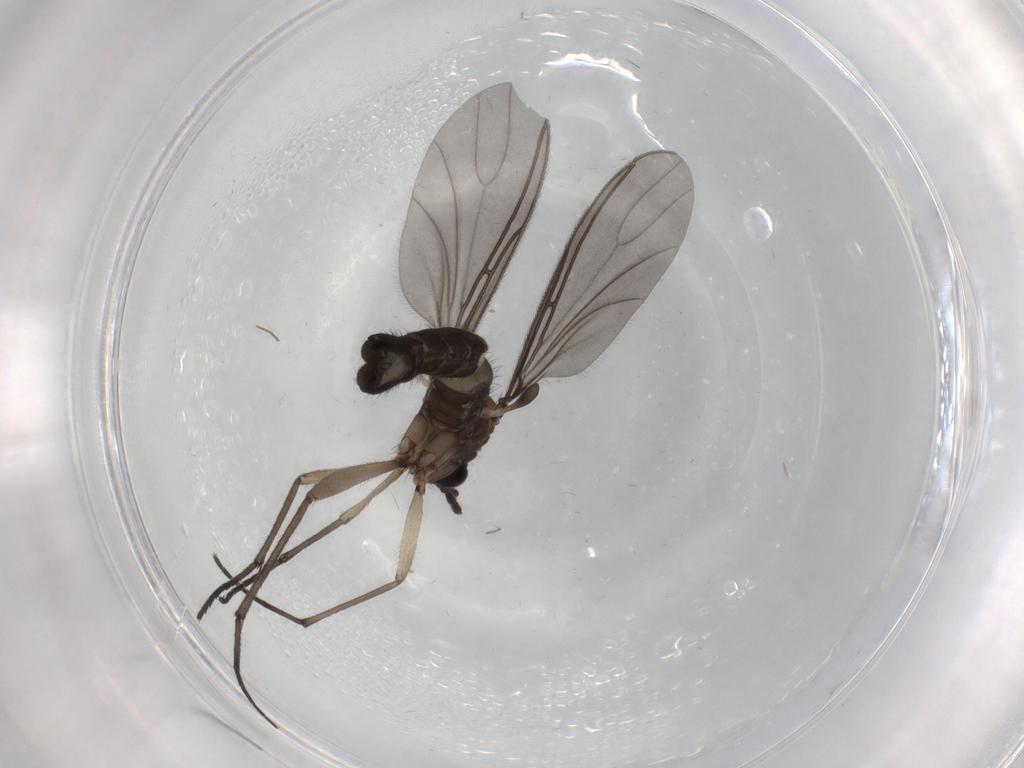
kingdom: Animalia
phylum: Arthropoda
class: Insecta
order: Diptera
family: Sciaridae
